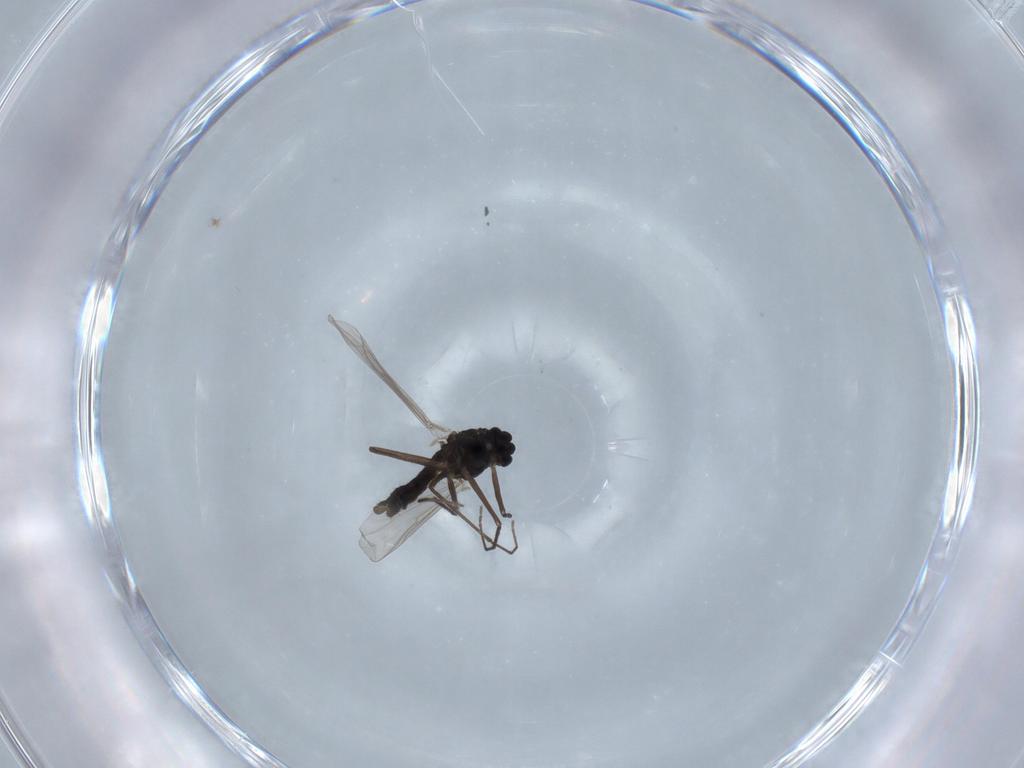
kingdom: Animalia
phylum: Arthropoda
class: Insecta
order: Diptera
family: Chironomidae
